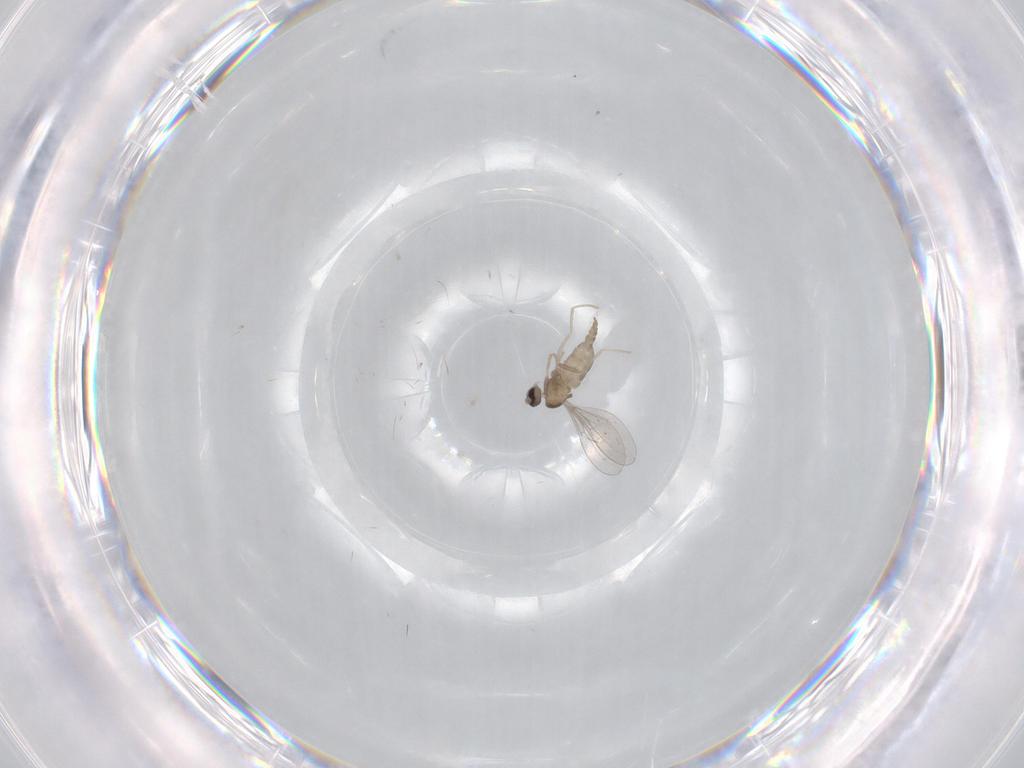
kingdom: Animalia
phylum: Arthropoda
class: Insecta
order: Diptera
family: Cecidomyiidae
